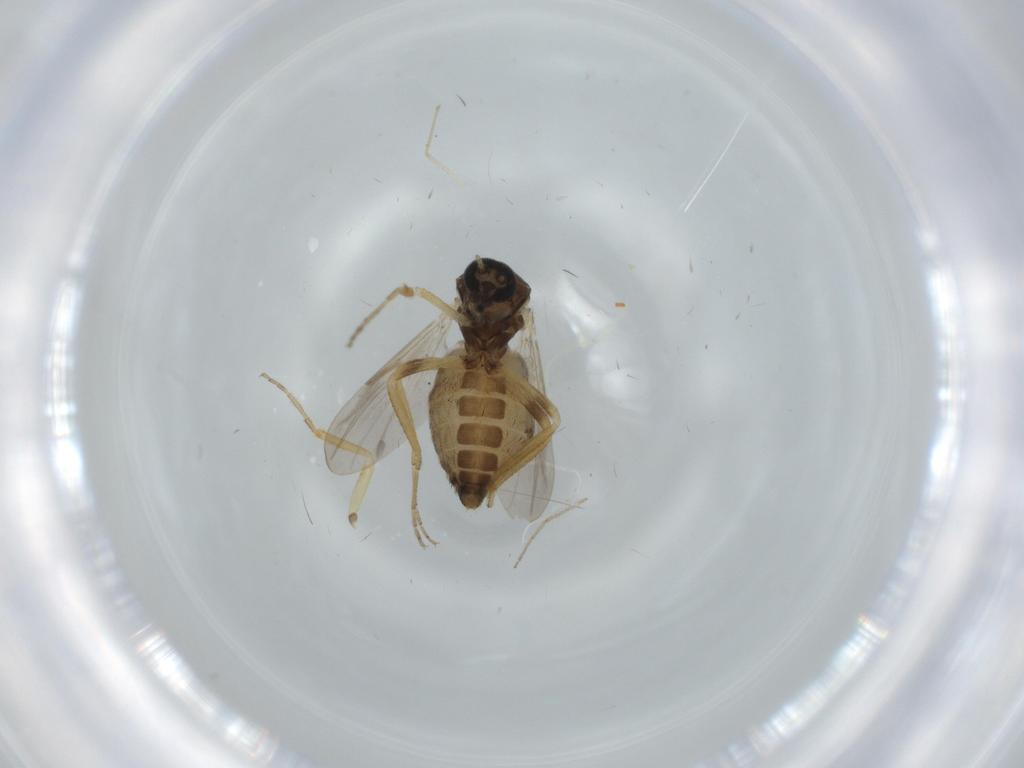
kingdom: Animalia
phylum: Arthropoda
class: Insecta
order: Diptera
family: Ceratopogonidae
